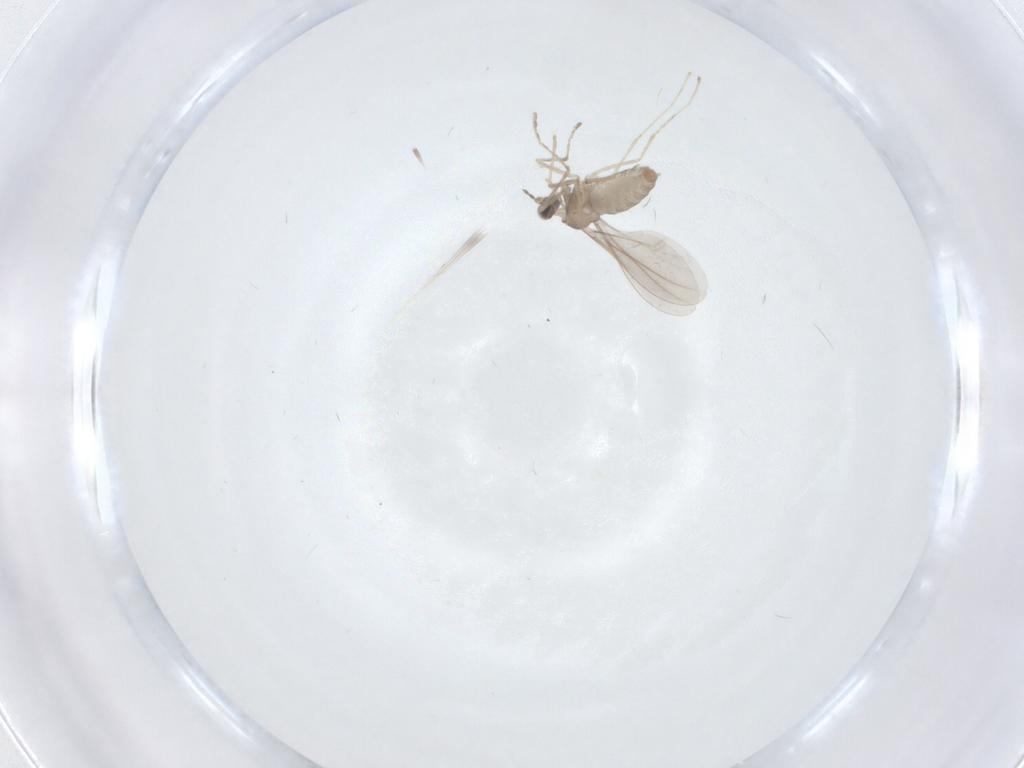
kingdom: Animalia
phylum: Arthropoda
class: Insecta
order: Diptera
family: Cecidomyiidae
